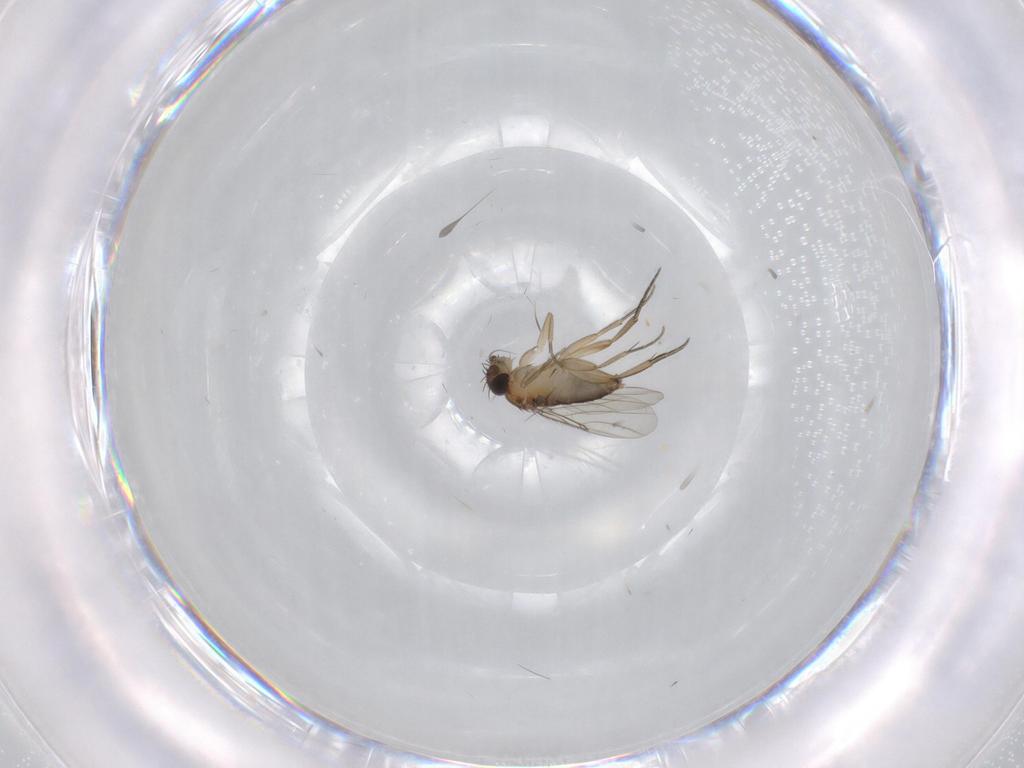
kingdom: Animalia
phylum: Arthropoda
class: Insecta
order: Diptera
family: Phoridae
